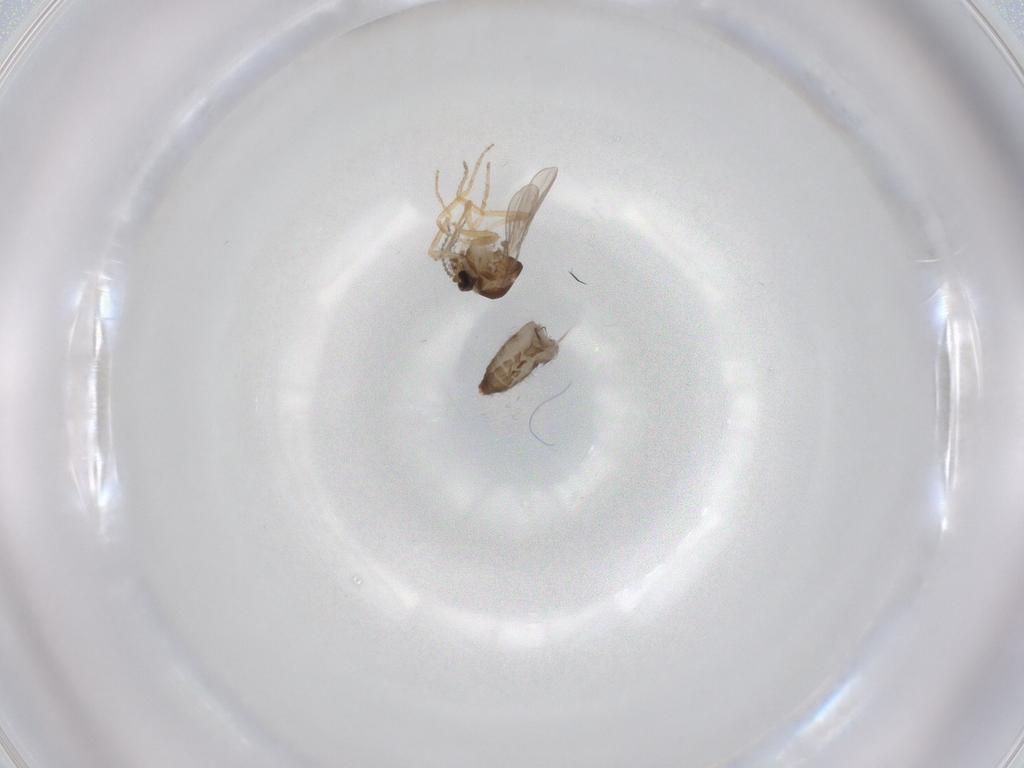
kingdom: Animalia
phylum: Arthropoda
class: Insecta
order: Diptera
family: Ceratopogonidae
